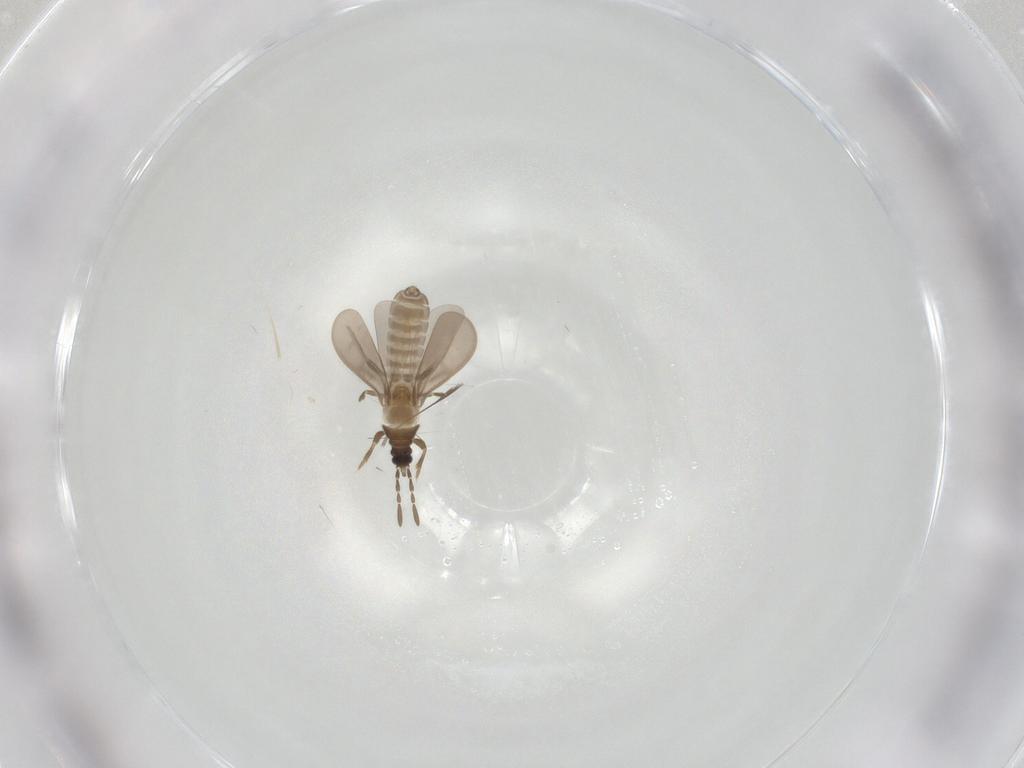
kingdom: Animalia
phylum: Arthropoda
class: Insecta
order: Hemiptera
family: Enicocephalidae
